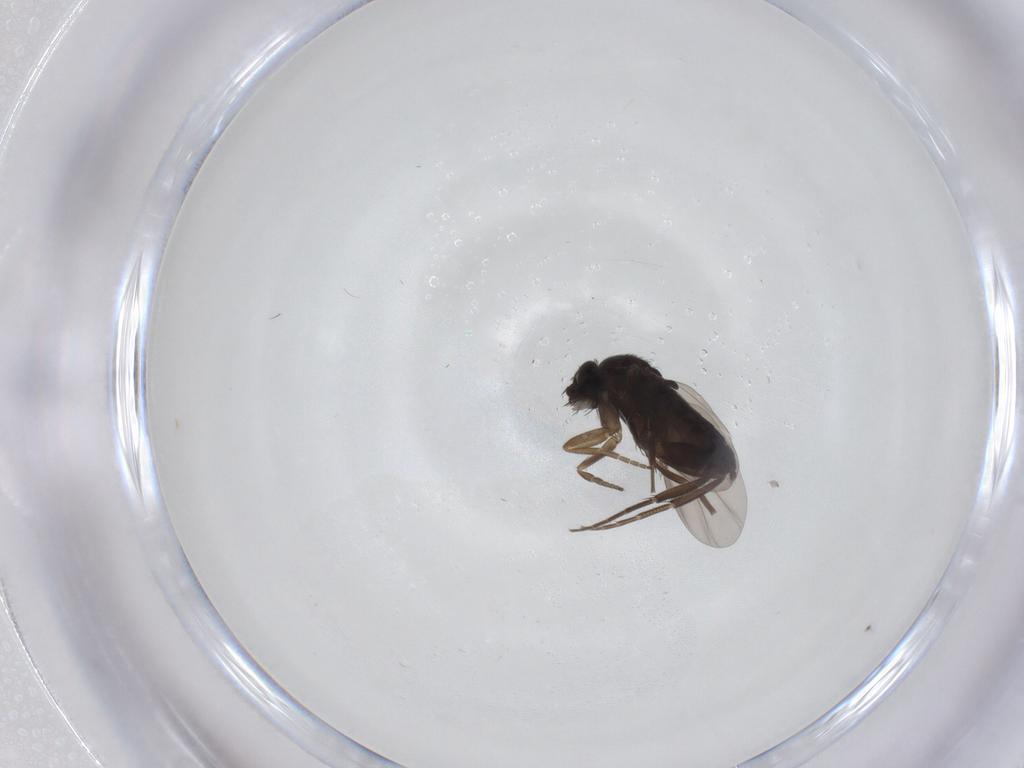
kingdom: Animalia
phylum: Arthropoda
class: Insecta
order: Diptera
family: Phoridae
